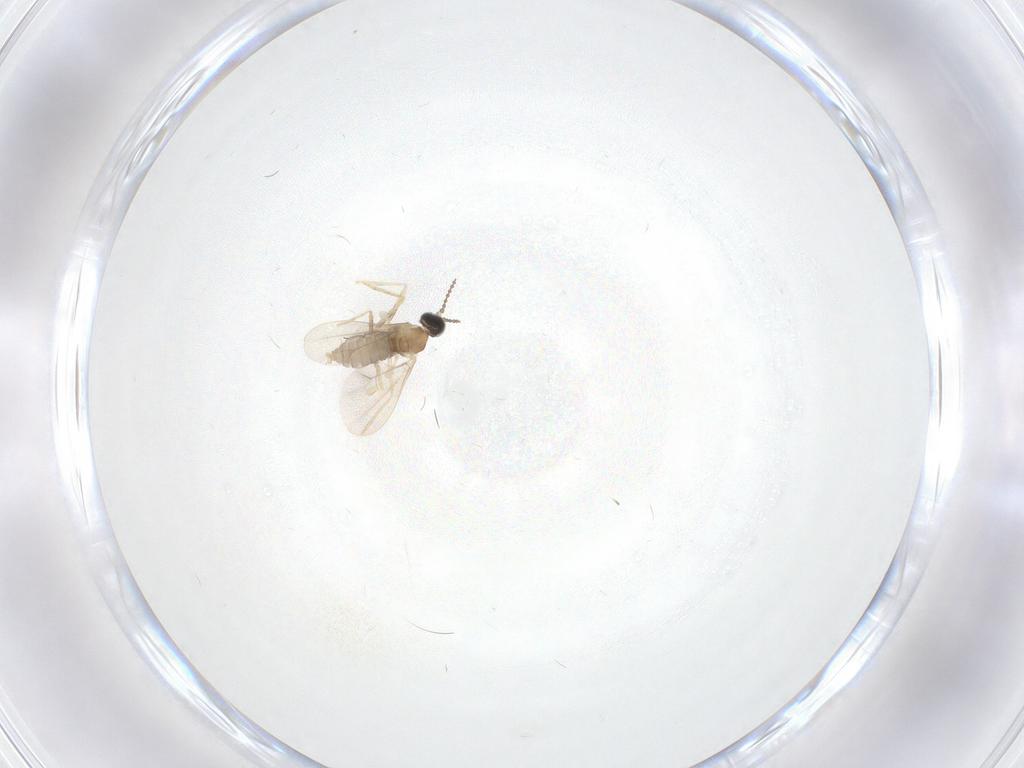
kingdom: Animalia
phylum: Arthropoda
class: Insecta
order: Diptera
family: Cecidomyiidae
